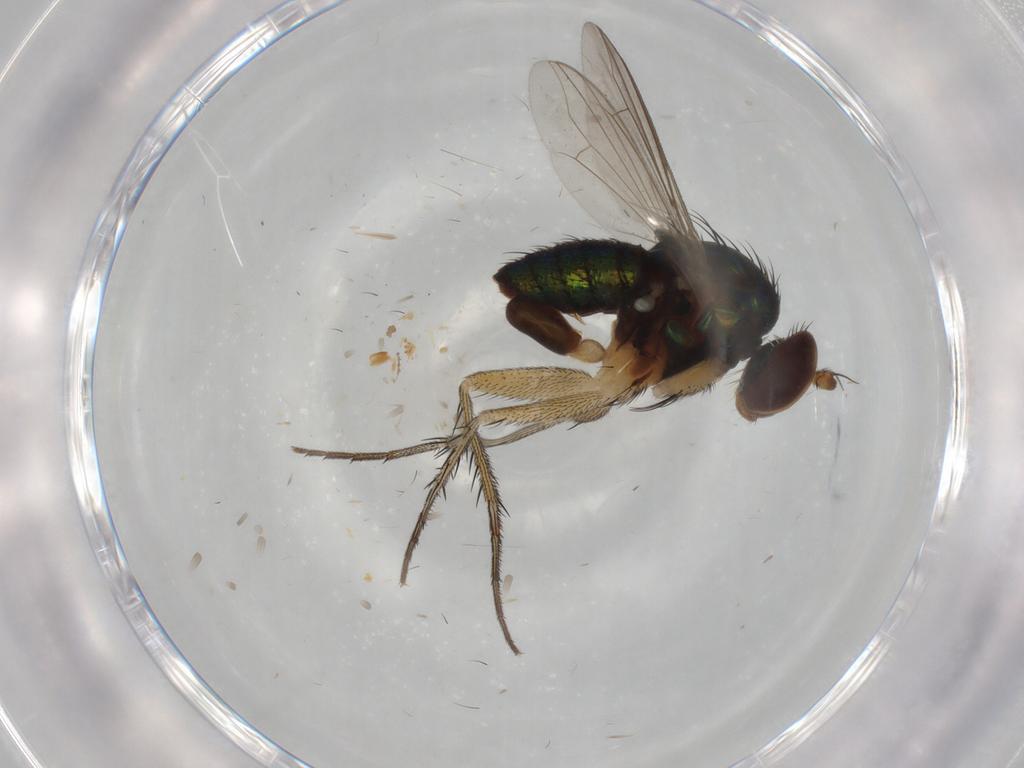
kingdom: Animalia
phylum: Arthropoda
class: Insecta
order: Diptera
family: Dolichopodidae
